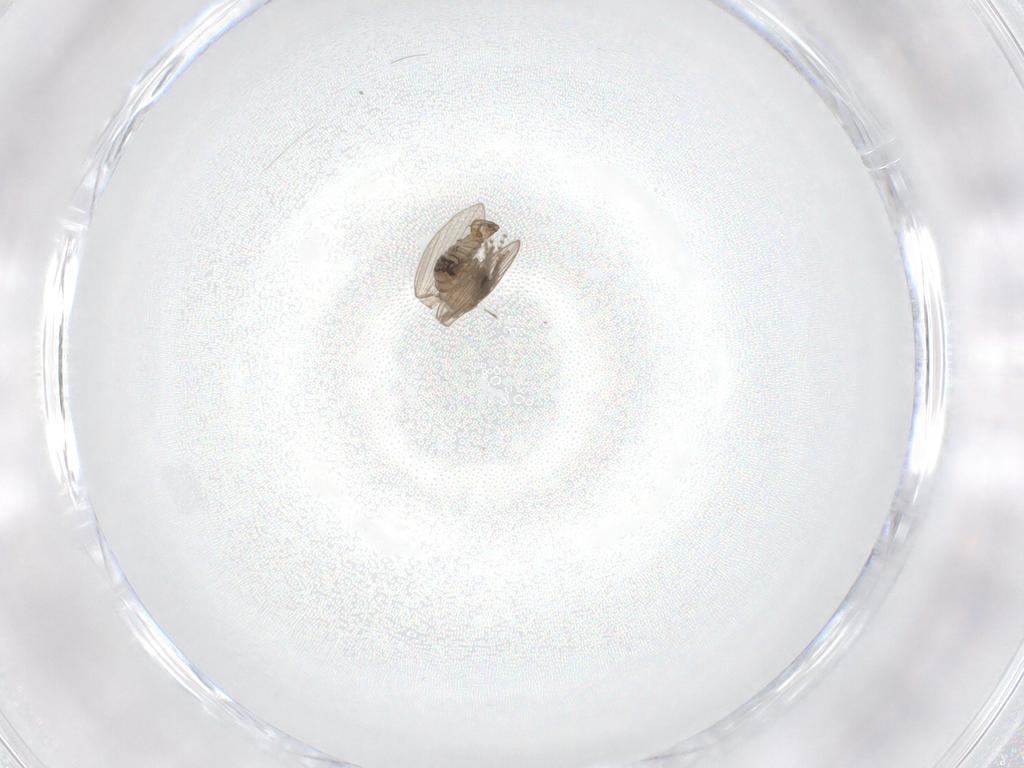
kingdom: Animalia
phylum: Arthropoda
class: Insecta
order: Diptera
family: Psychodidae
